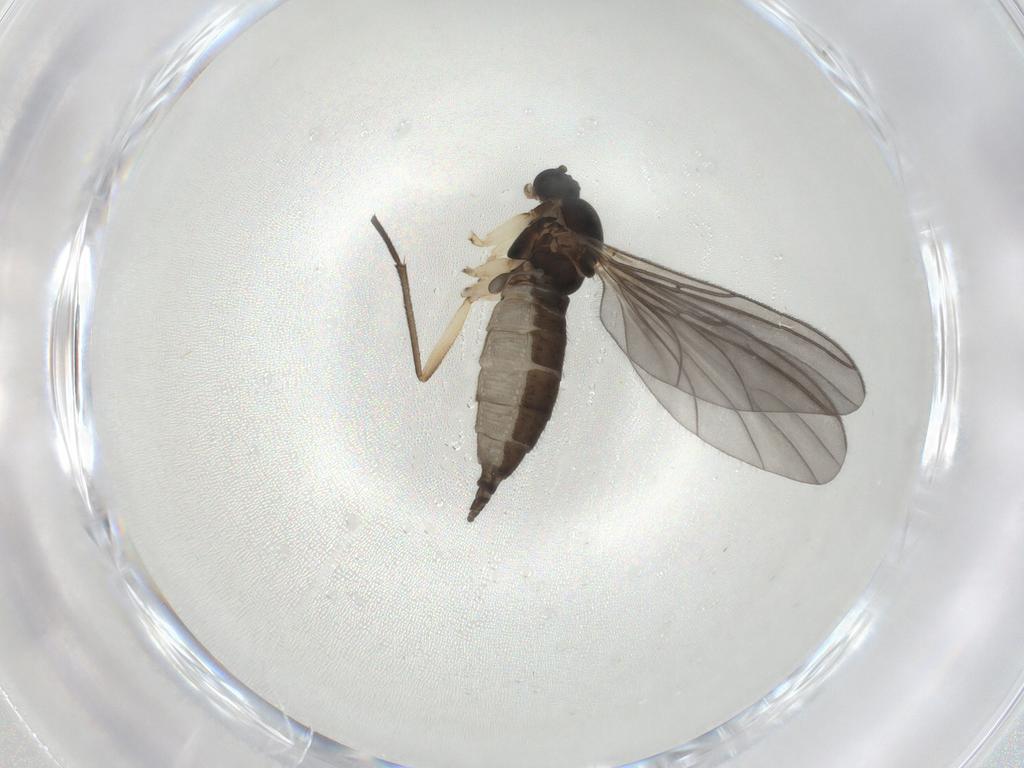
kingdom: Animalia
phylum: Arthropoda
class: Insecta
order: Diptera
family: Sciaridae
